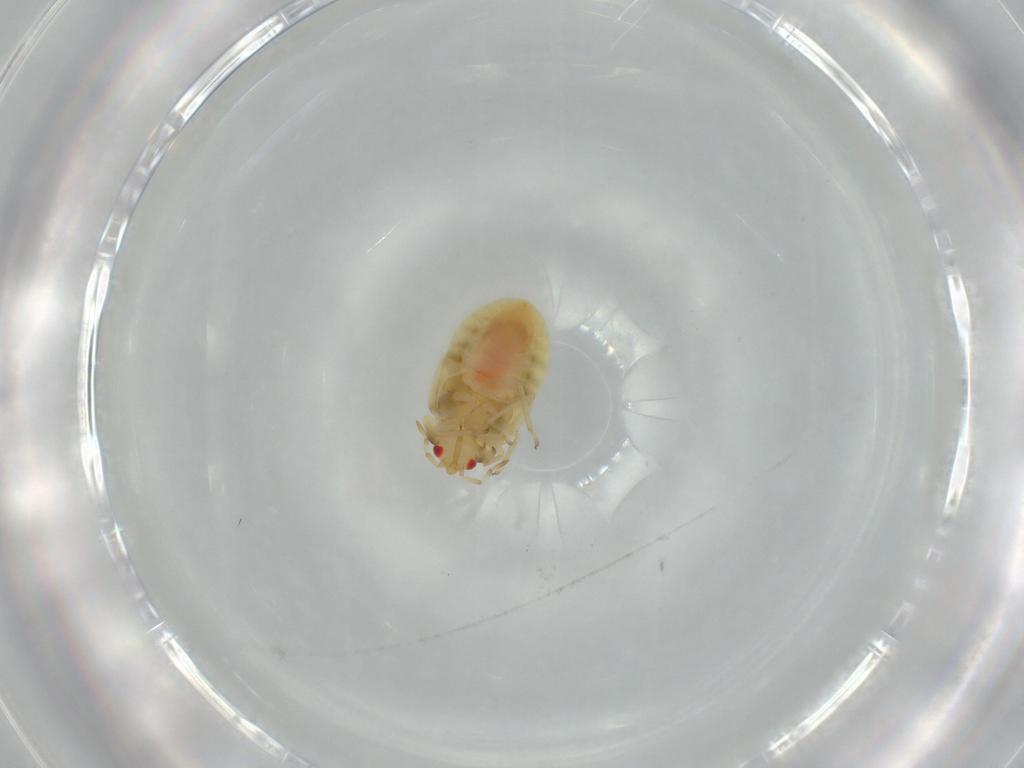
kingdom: Animalia
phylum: Arthropoda
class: Insecta
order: Hemiptera
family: Anthocoridae
